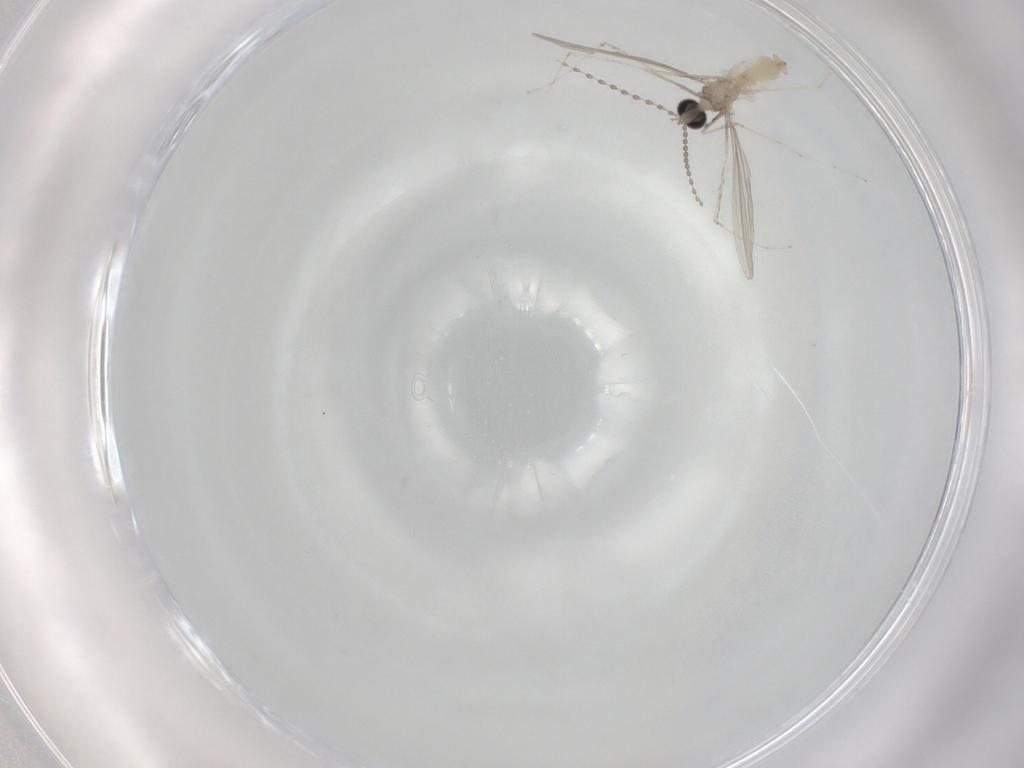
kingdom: Animalia
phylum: Arthropoda
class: Insecta
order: Diptera
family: Cecidomyiidae
